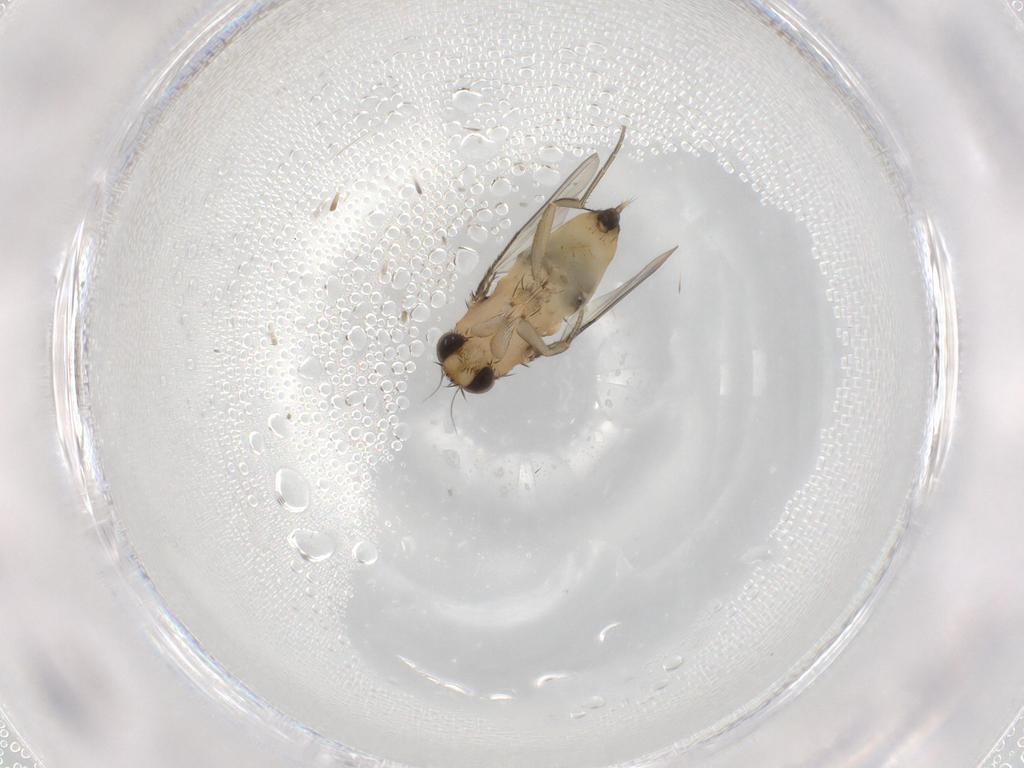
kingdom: Animalia
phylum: Arthropoda
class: Insecta
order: Diptera
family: Phoridae
